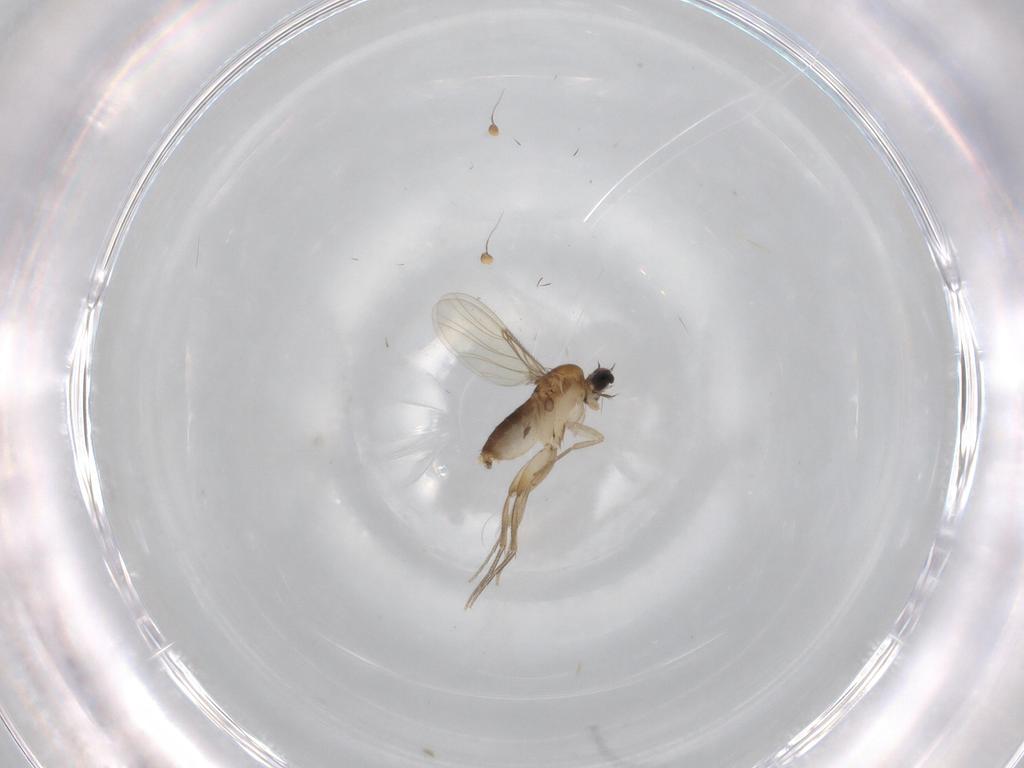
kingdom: Animalia
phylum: Arthropoda
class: Insecta
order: Diptera
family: Phoridae
